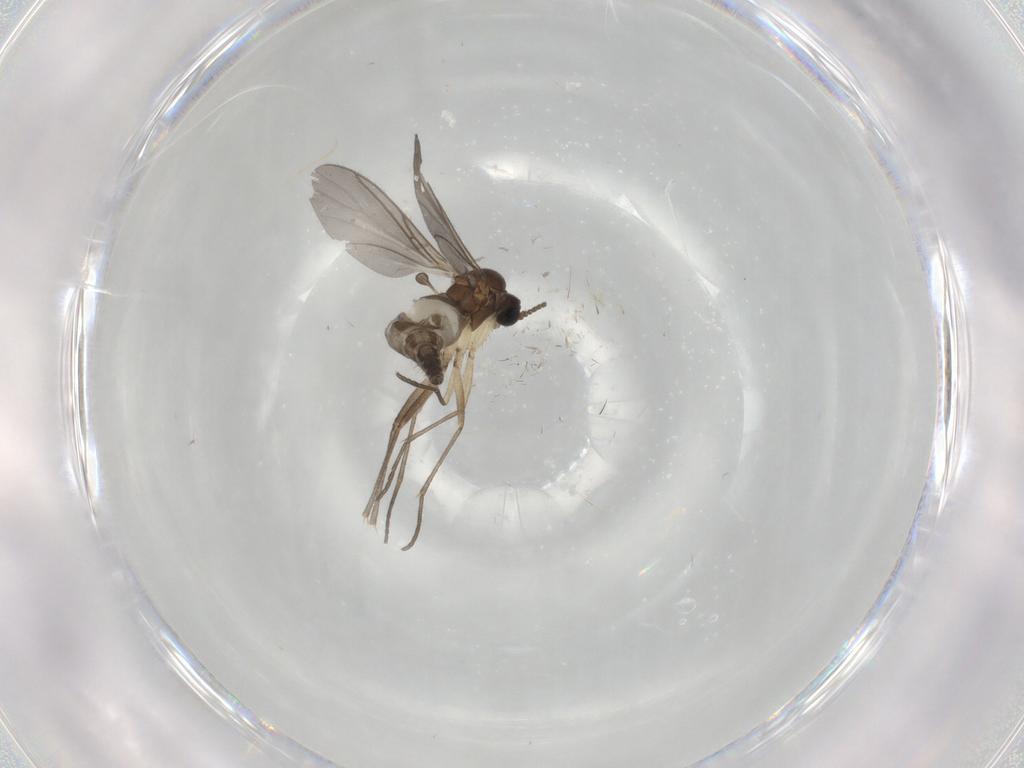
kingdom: Animalia
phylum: Arthropoda
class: Insecta
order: Diptera
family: Sciaridae
